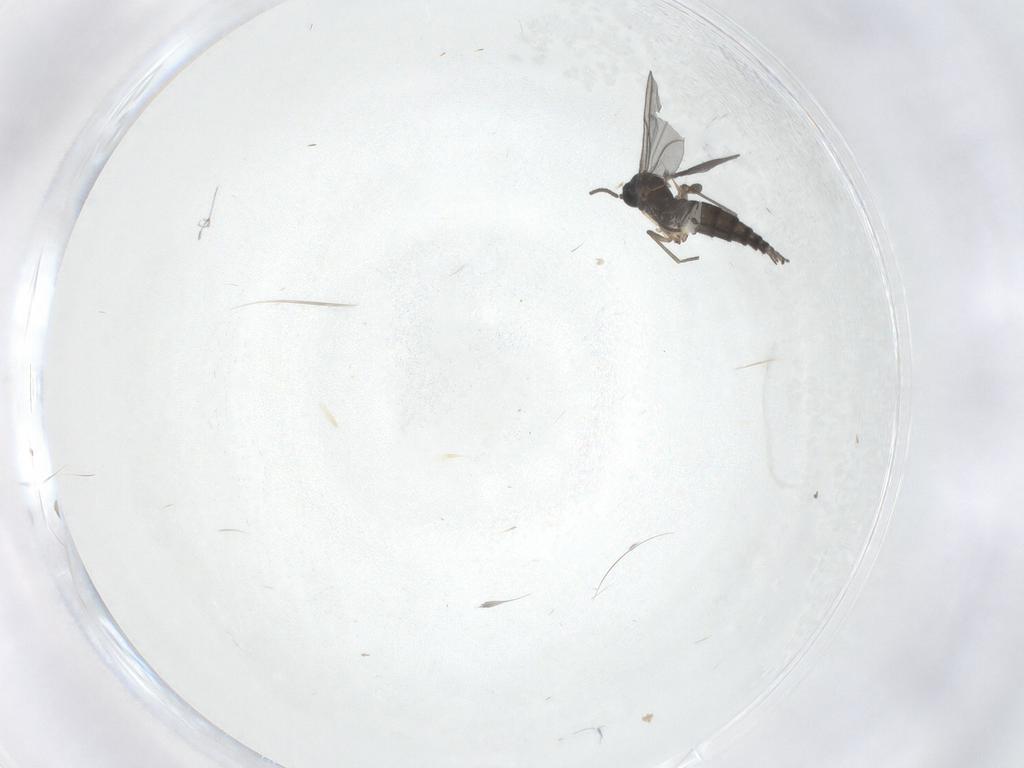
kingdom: Animalia
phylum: Arthropoda
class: Insecta
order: Diptera
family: Sciaridae
